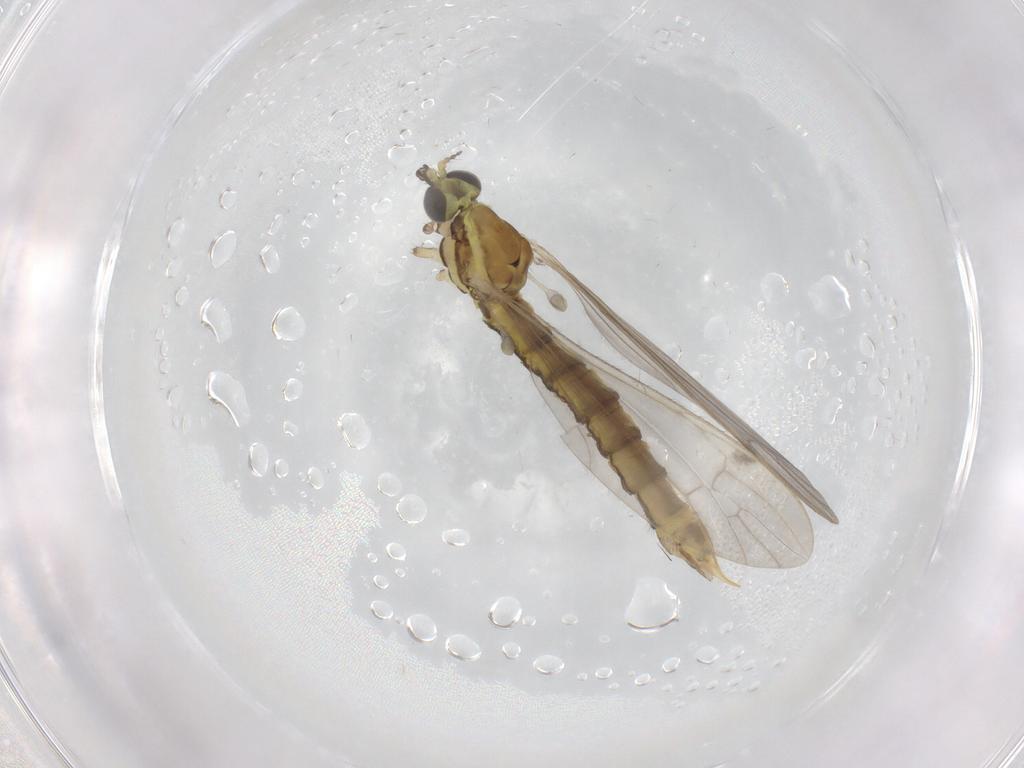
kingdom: Animalia
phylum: Arthropoda
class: Insecta
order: Diptera
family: Limoniidae
